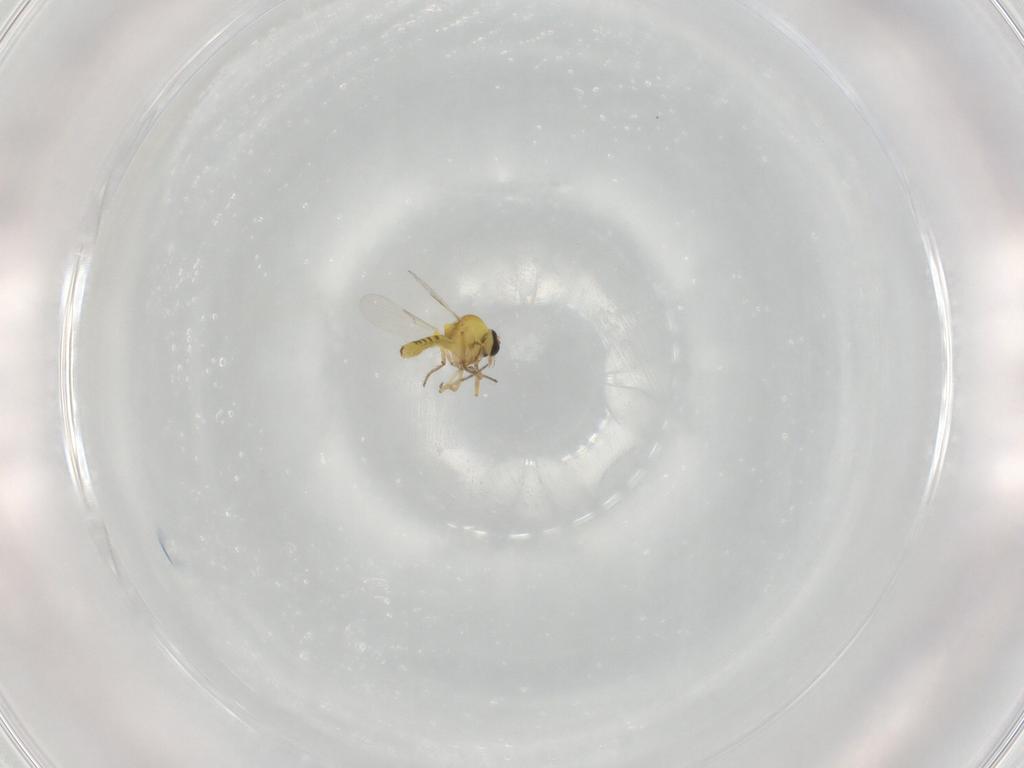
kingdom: Animalia
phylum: Arthropoda
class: Insecta
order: Diptera
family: Ceratopogonidae
